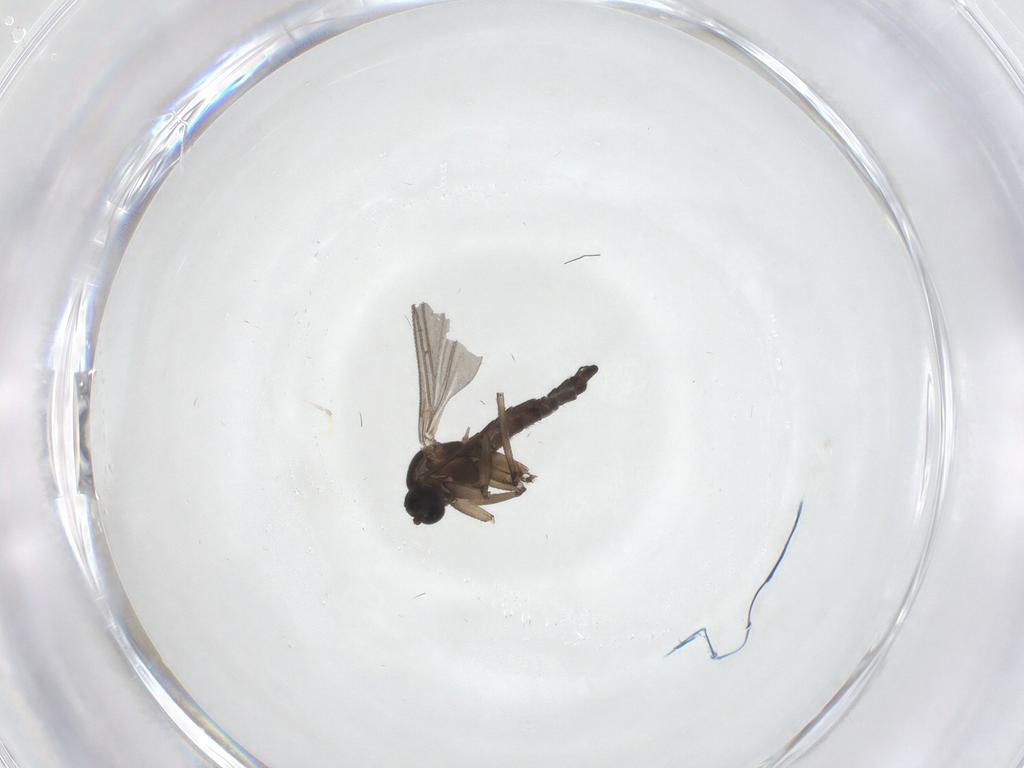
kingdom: Animalia
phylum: Arthropoda
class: Insecta
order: Diptera
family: Sciaridae
